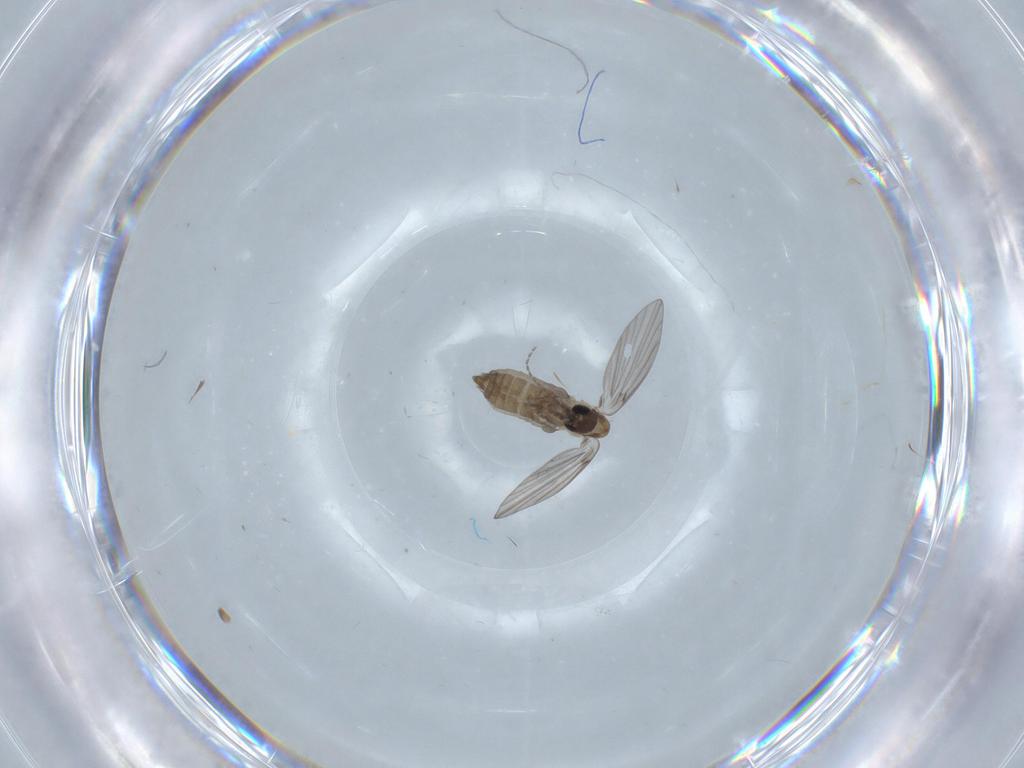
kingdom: Animalia
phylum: Arthropoda
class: Insecta
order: Diptera
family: Psychodidae
